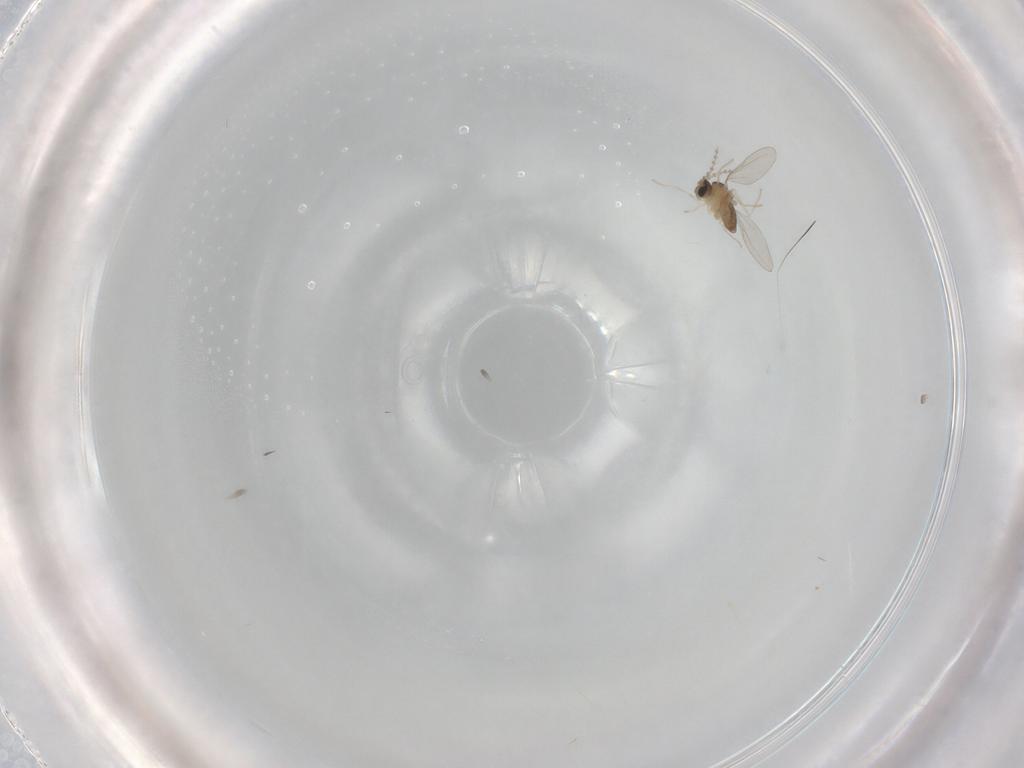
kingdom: Animalia
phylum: Arthropoda
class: Insecta
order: Diptera
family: Cecidomyiidae
